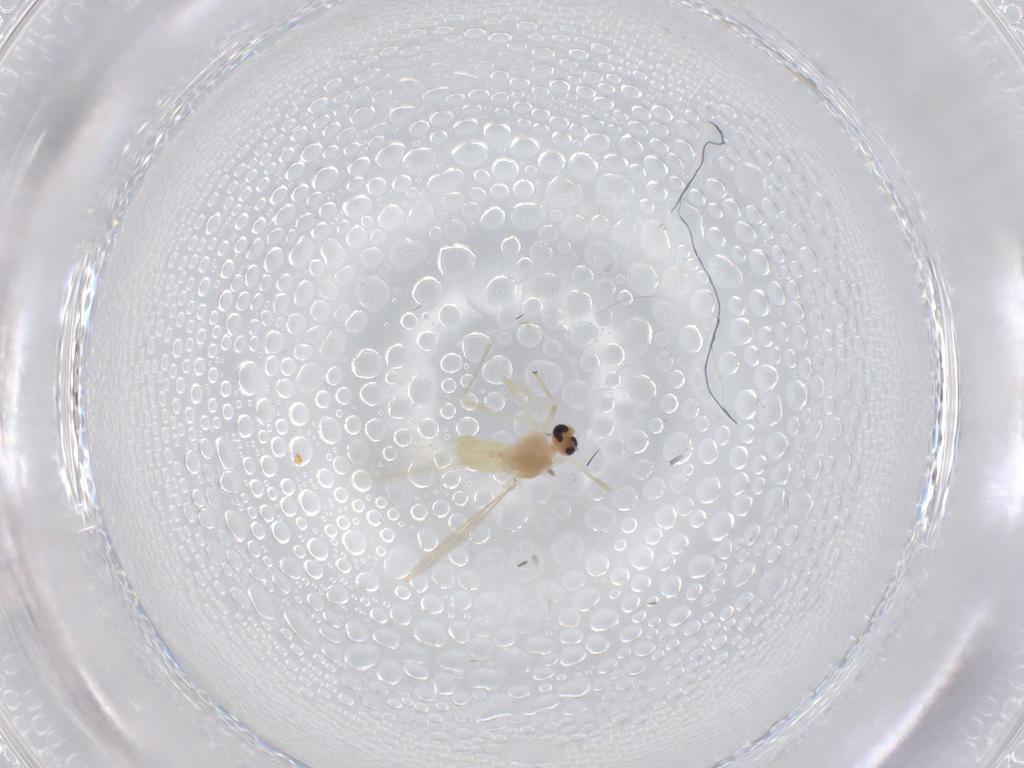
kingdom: Animalia
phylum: Arthropoda
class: Insecta
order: Diptera
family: Chironomidae
